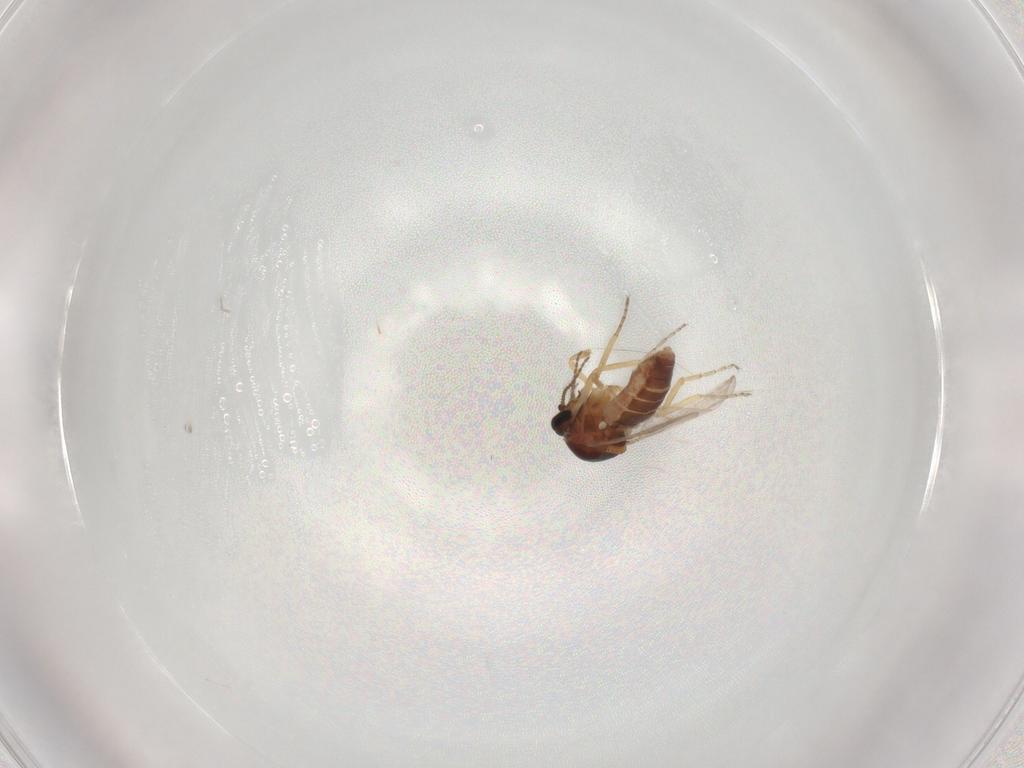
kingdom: Animalia
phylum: Arthropoda
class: Insecta
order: Diptera
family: Ceratopogonidae
